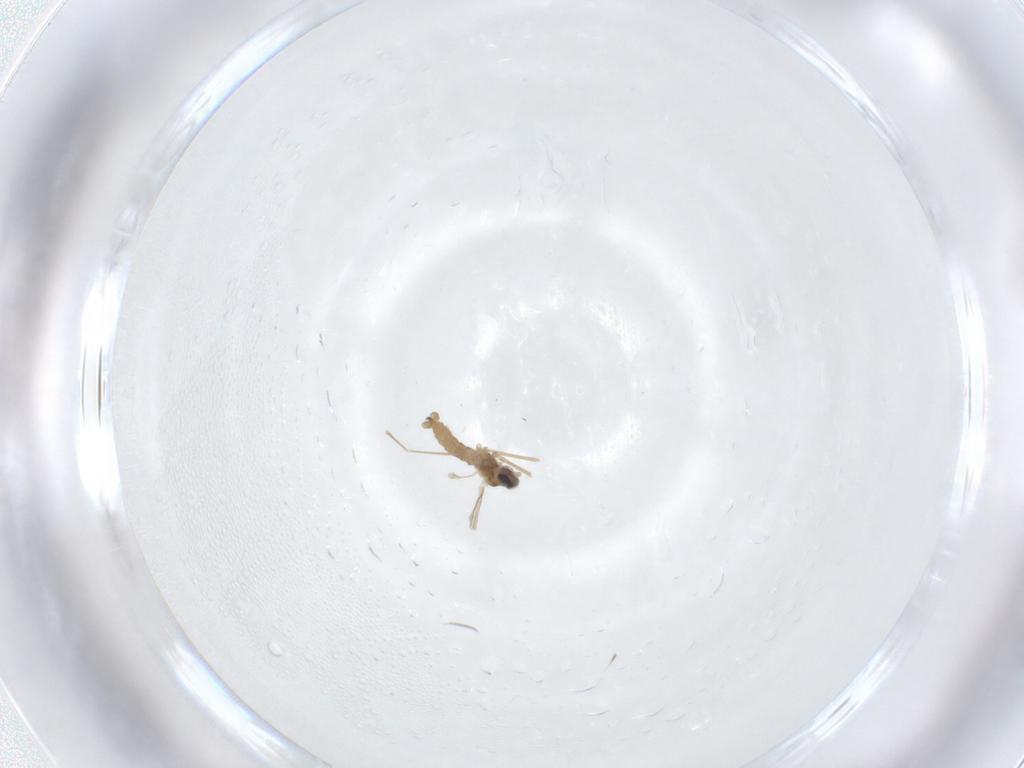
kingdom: Animalia
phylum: Arthropoda
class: Insecta
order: Diptera
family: Cecidomyiidae
